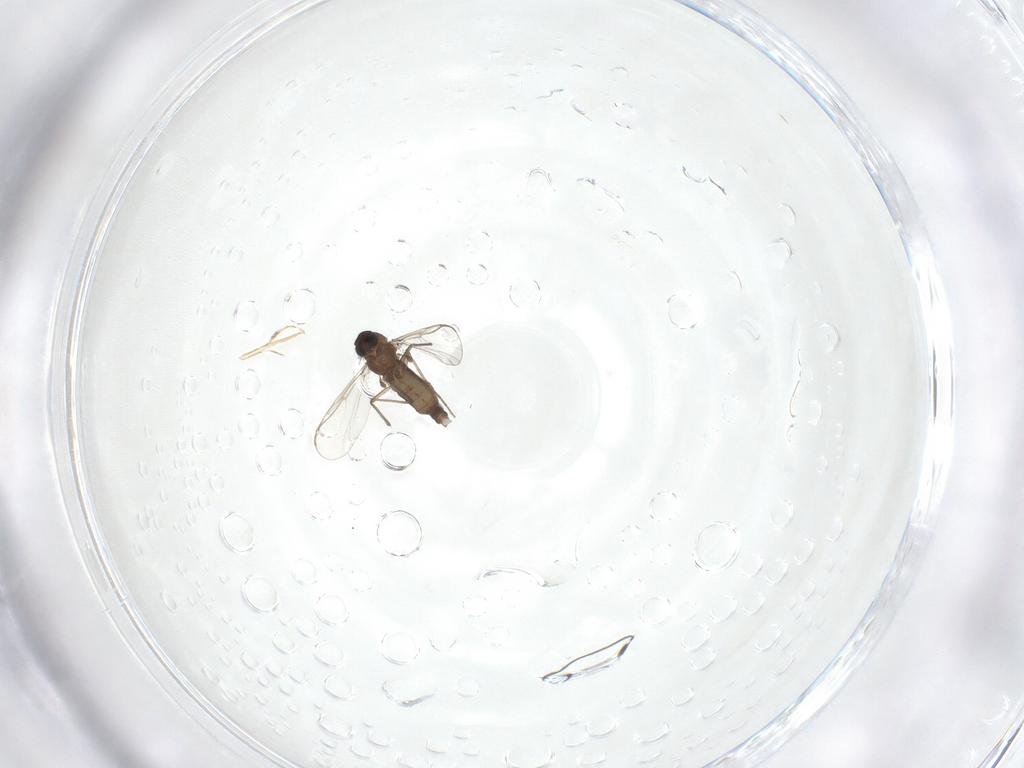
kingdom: Animalia
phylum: Arthropoda
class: Insecta
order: Diptera
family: Chironomidae
